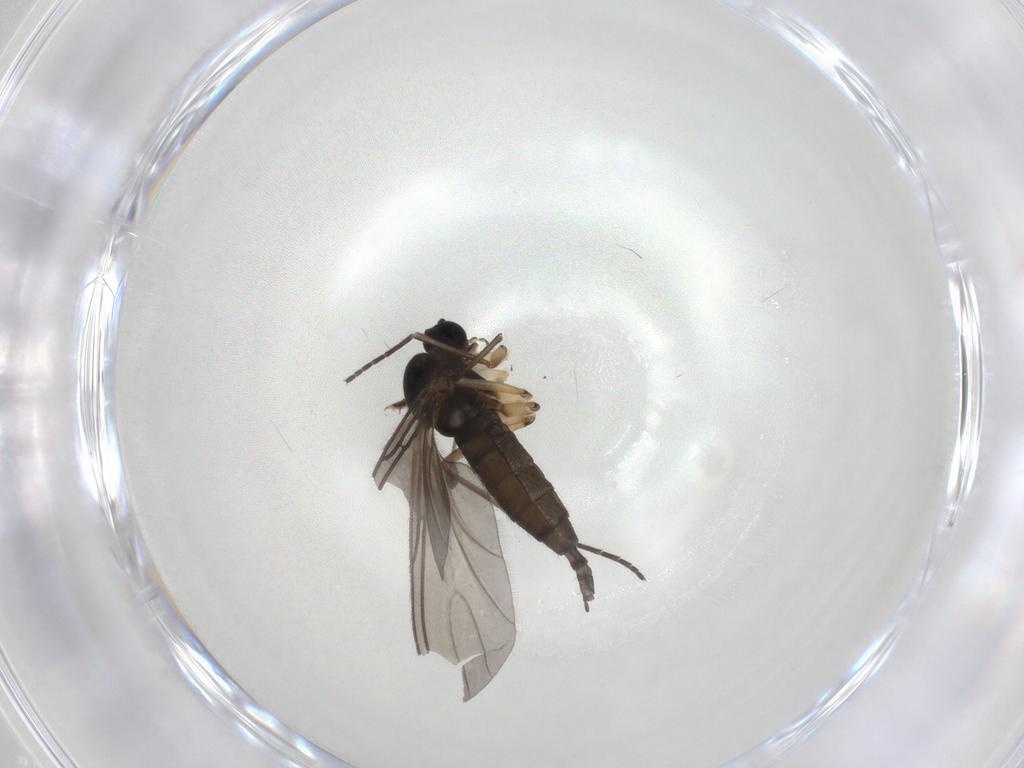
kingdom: Animalia
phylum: Arthropoda
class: Insecta
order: Diptera
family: Sciaridae
